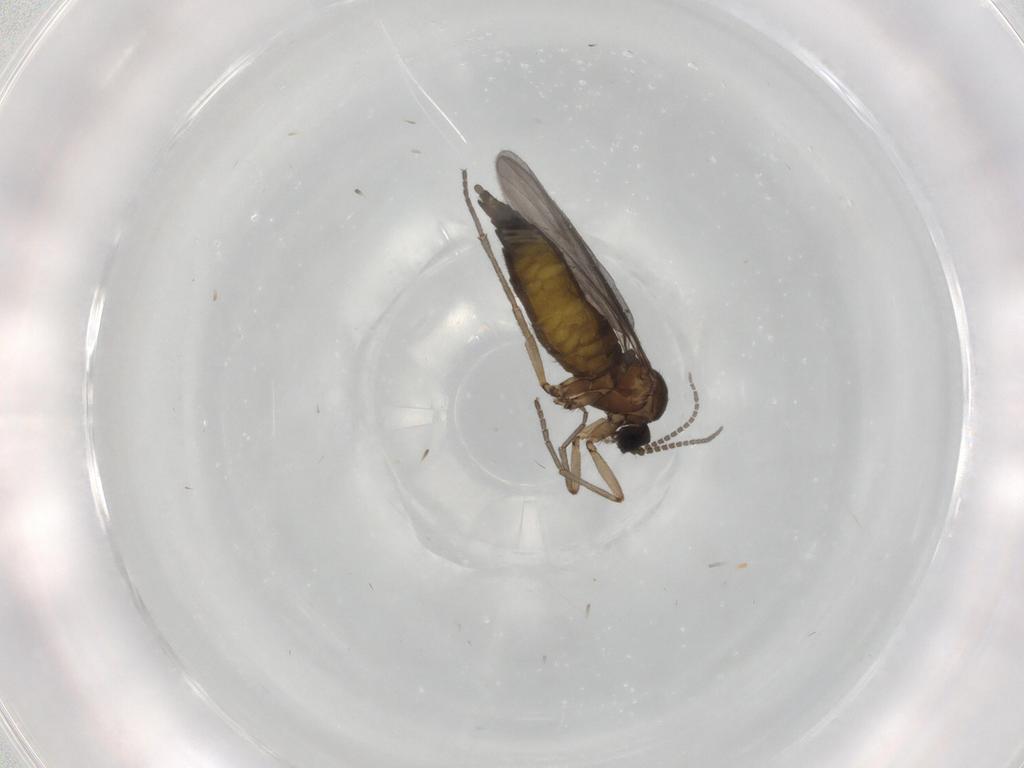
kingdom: Animalia
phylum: Arthropoda
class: Insecta
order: Diptera
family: Sciaridae
